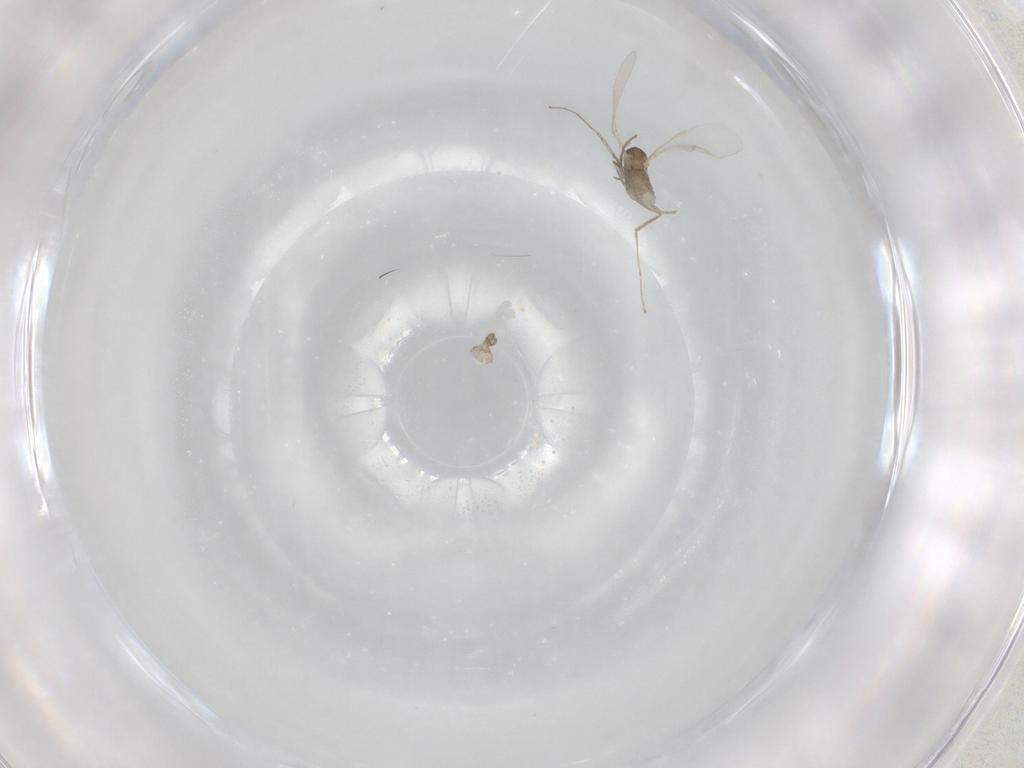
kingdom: Animalia
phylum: Arthropoda
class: Insecta
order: Diptera
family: Cecidomyiidae
